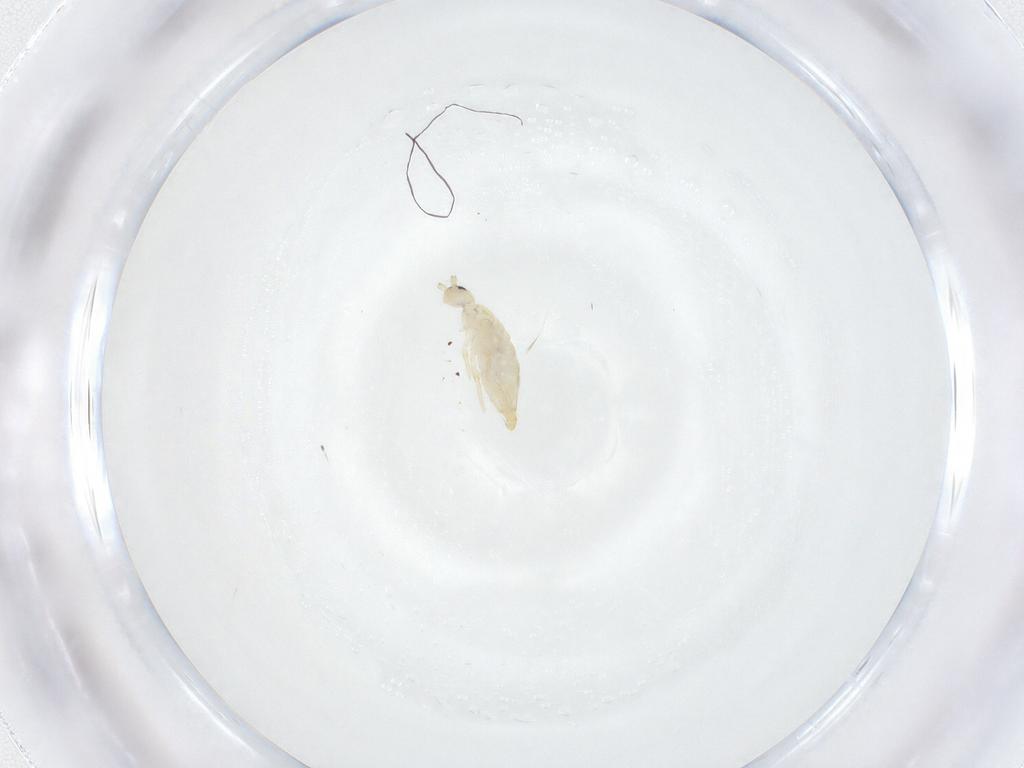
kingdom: Animalia
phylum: Arthropoda
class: Collembola
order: Entomobryomorpha
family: Entomobryidae
